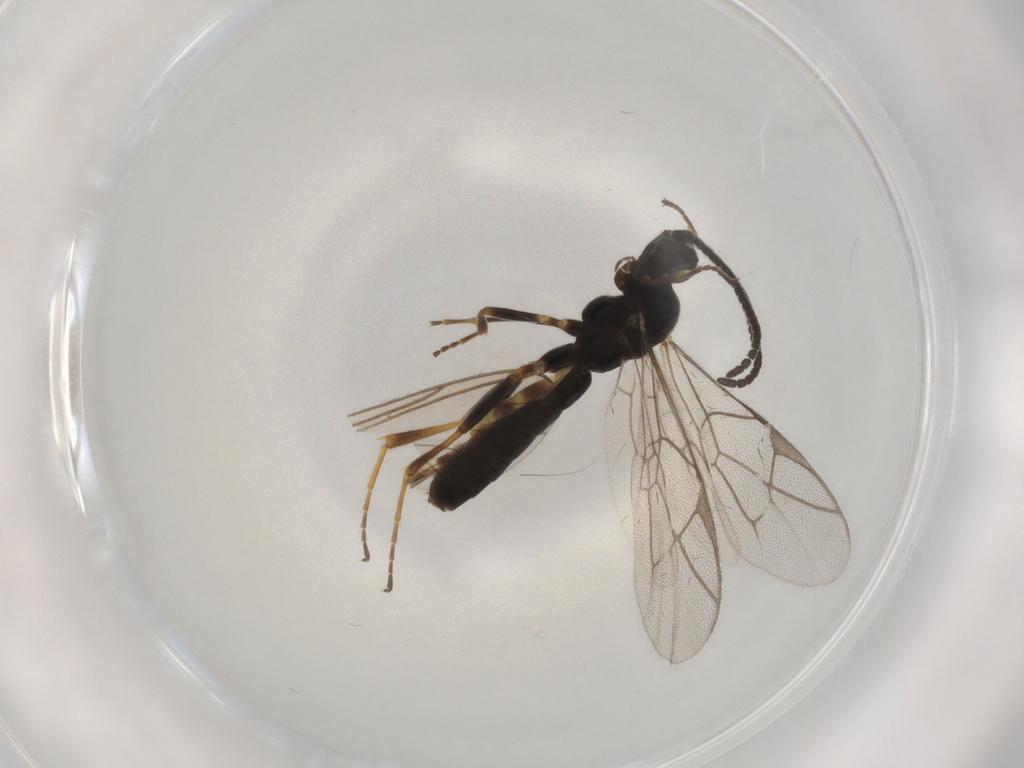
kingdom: Animalia
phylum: Arthropoda
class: Insecta
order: Hymenoptera
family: Ichneumonidae
